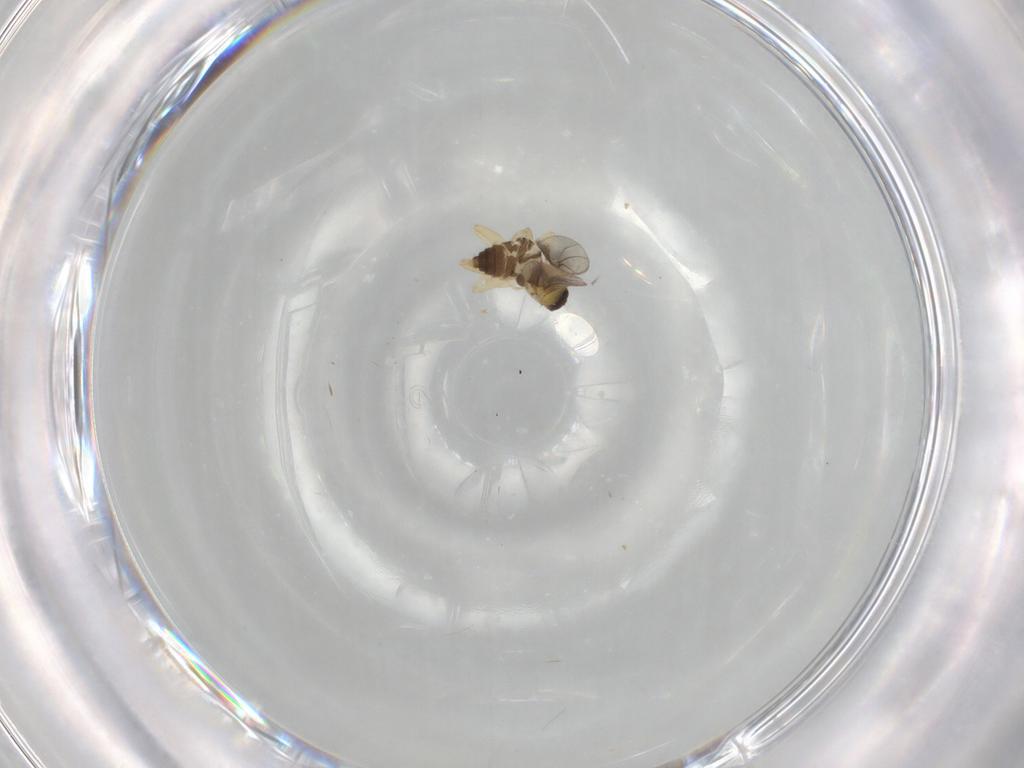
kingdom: Animalia
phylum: Arthropoda
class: Insecta
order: Diptera
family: Hybotidae
